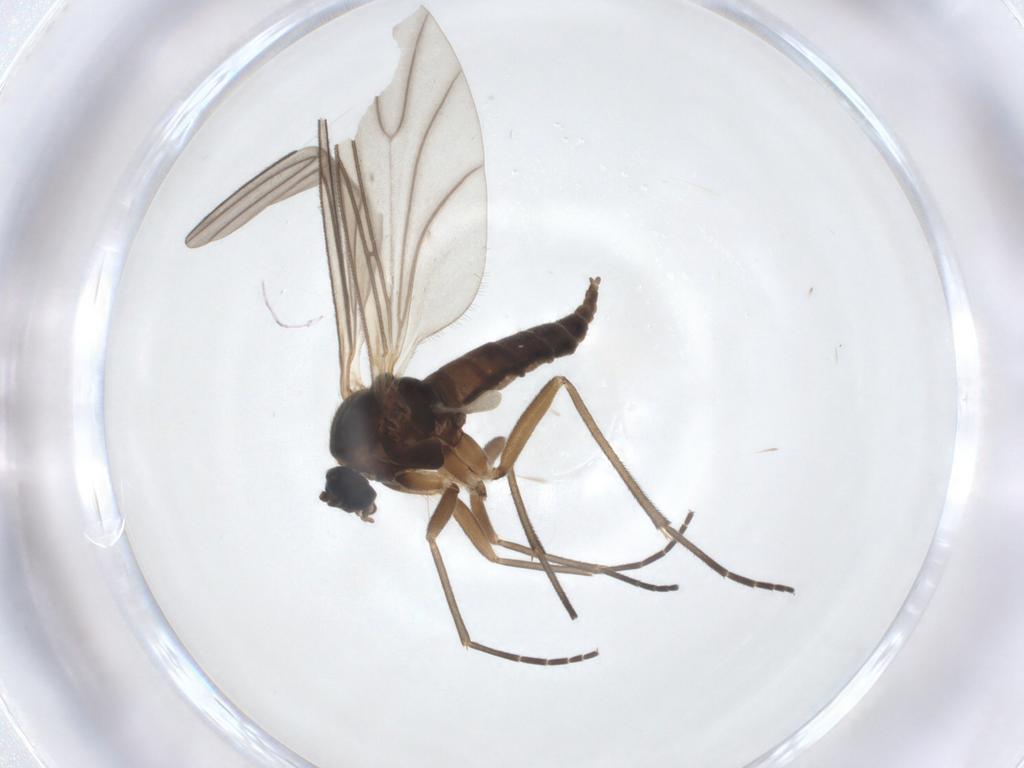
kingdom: Animalia
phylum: Arthropoda
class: Insecta
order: Diptera
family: Sciaridae
